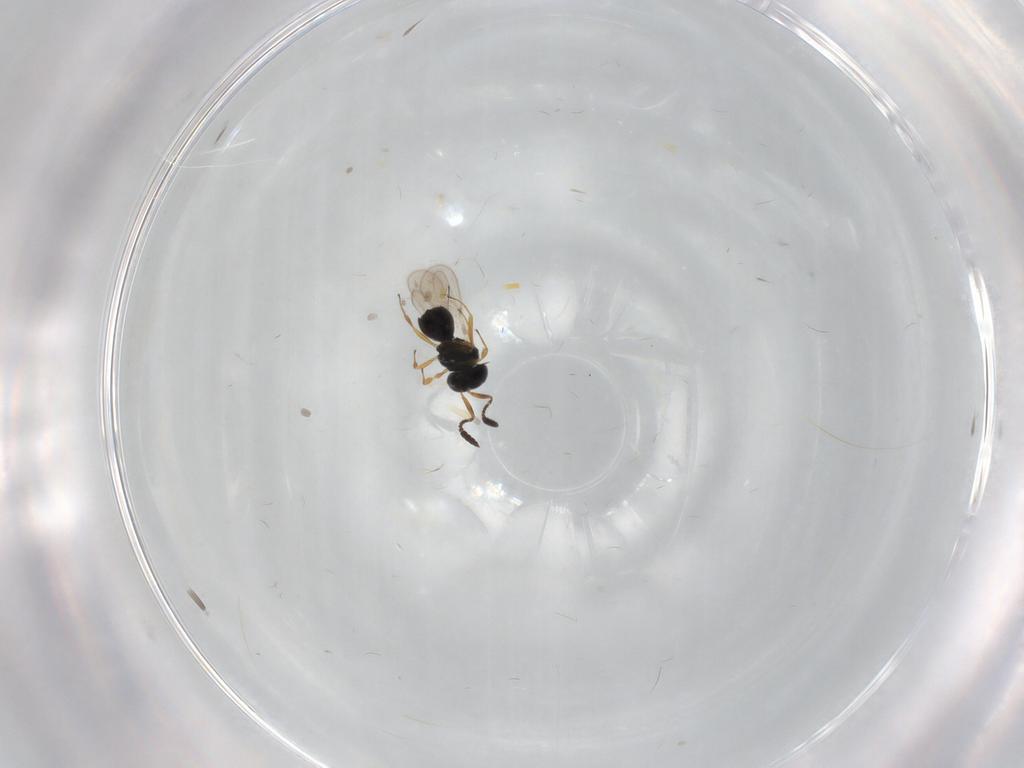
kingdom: Animalia
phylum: Arthropoda
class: Insecta
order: Hymenoptera
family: Scelionidae
